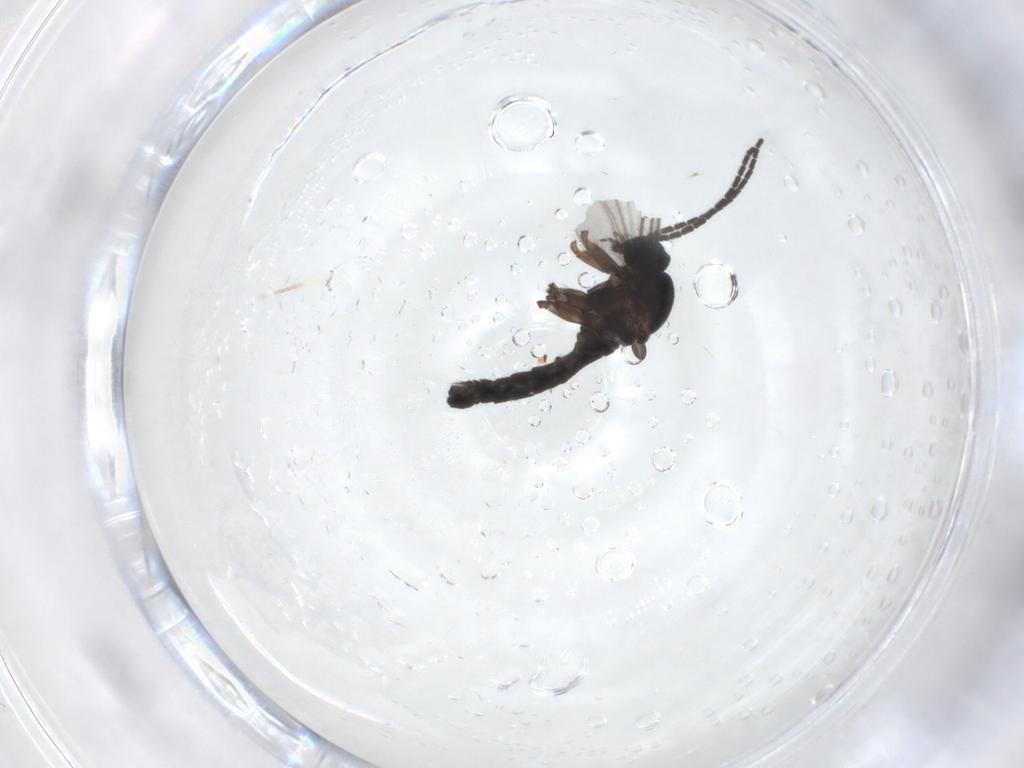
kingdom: Animalia
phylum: Arthropoda
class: Insecta
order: Diptera
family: Sciaridae
